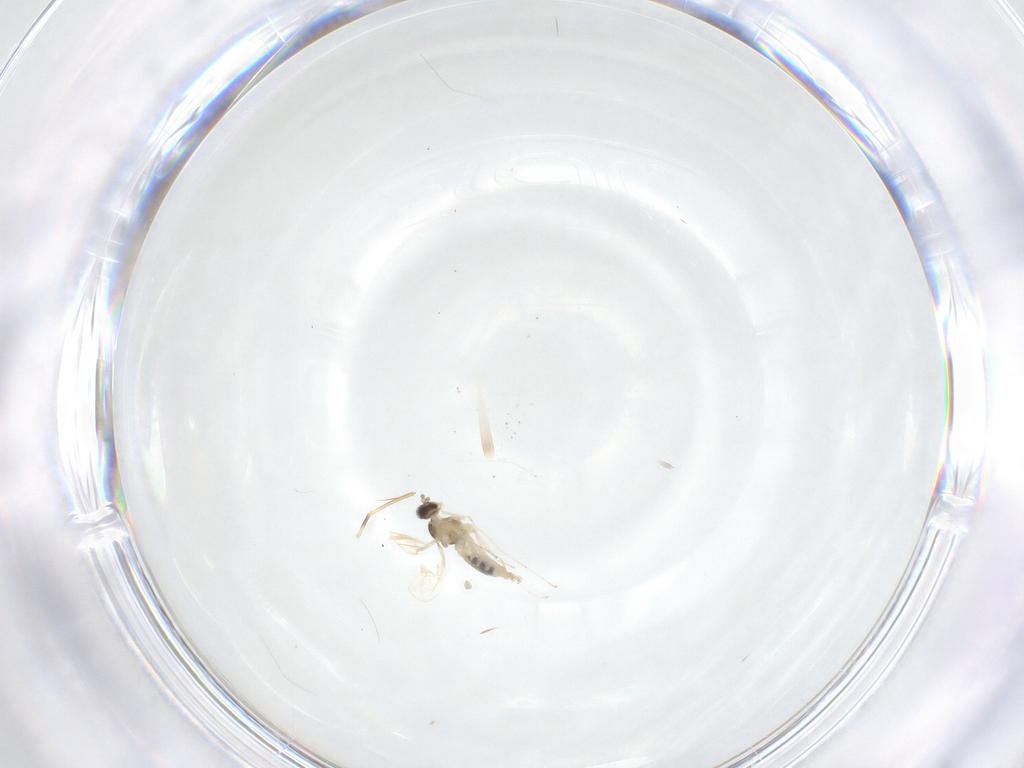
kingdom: Animalia
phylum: Arthropoda
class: Insecta
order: Diptera
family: Cecidomyiidae
